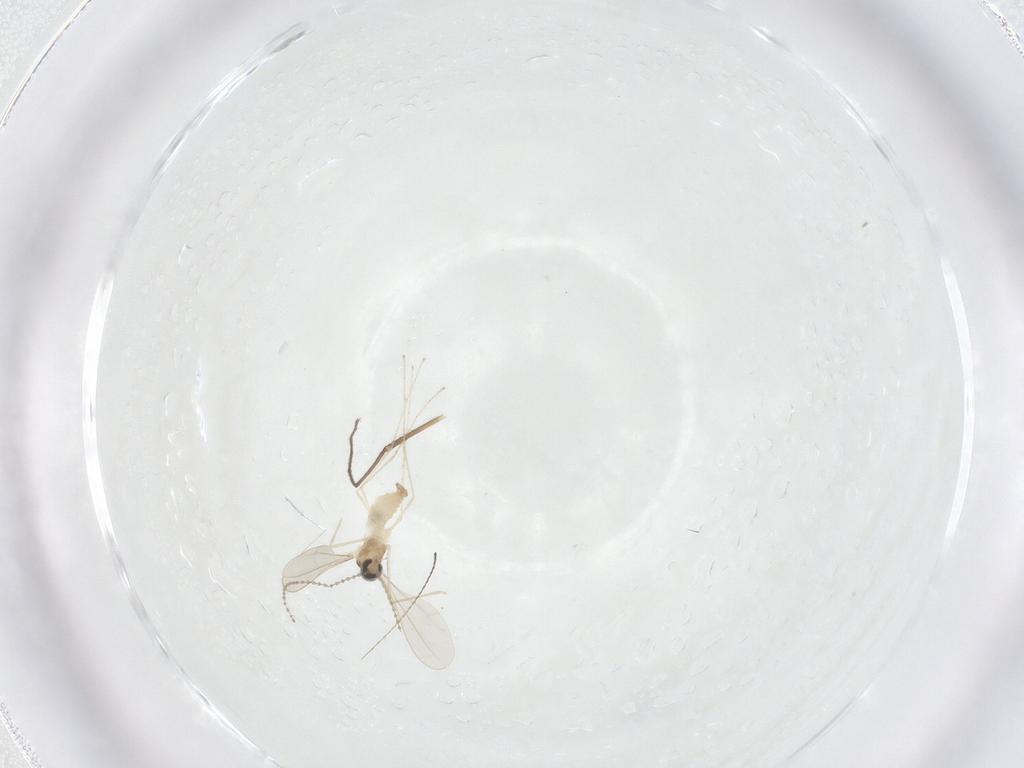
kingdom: Animalia
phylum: Arthropoda
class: Insecta
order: Diptera
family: Cecidomyiidae
